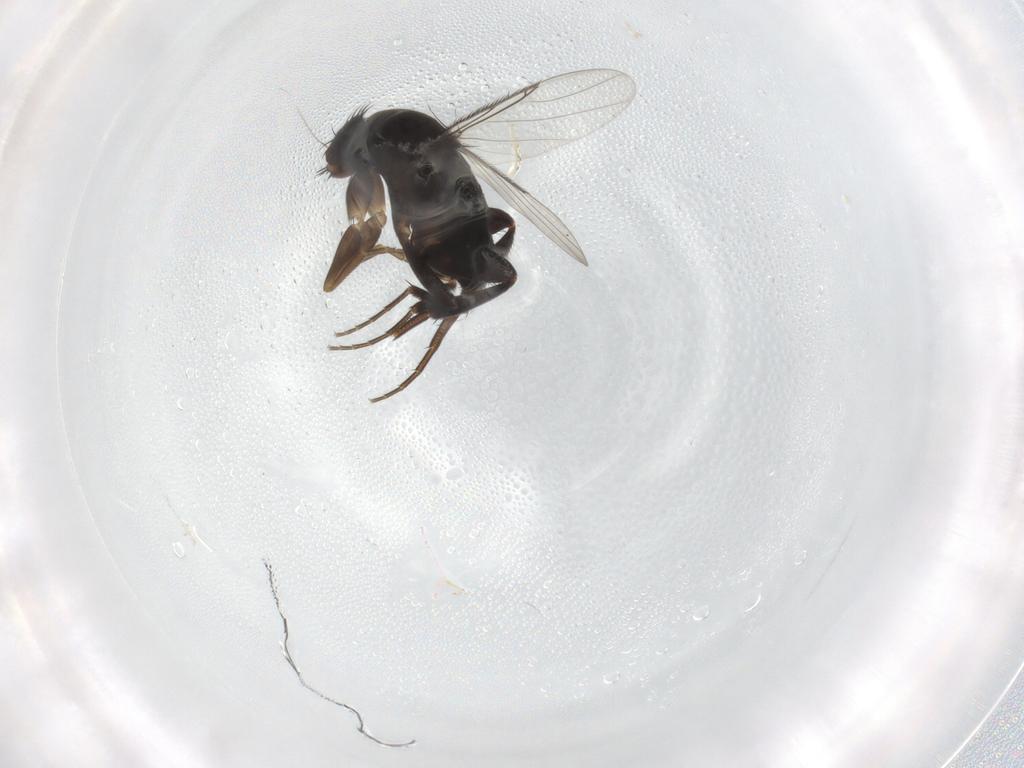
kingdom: Animalia
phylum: Arthropoda
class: Insecta
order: Diptera
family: Phoridae
